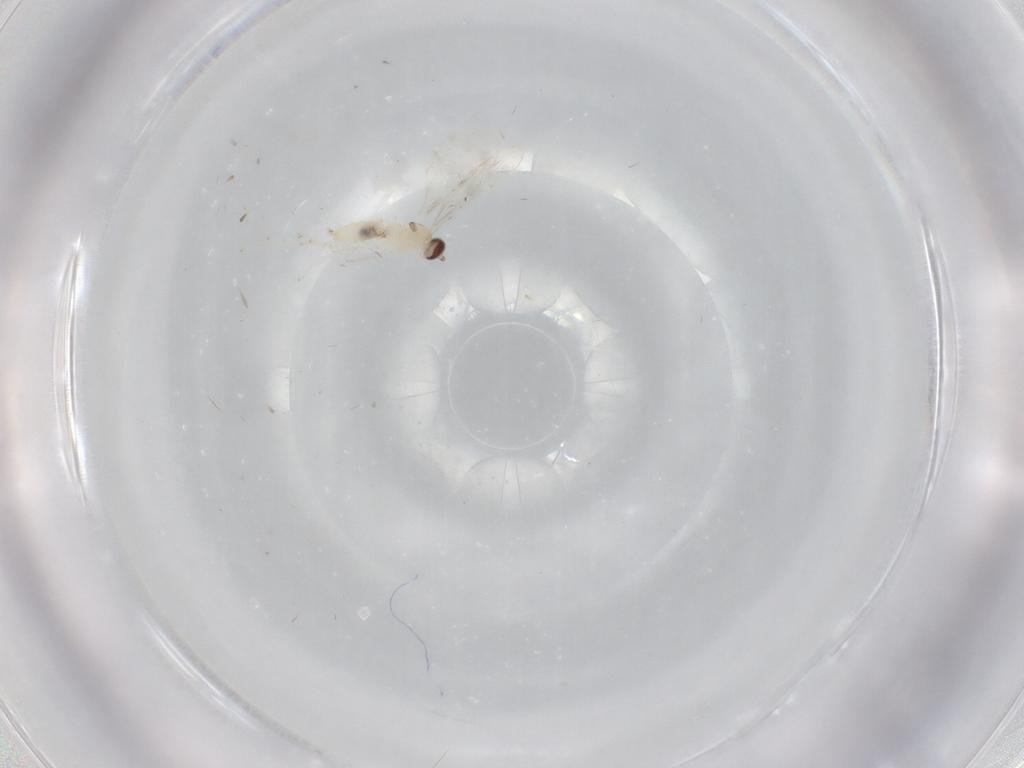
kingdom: Animalia
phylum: Arthropoda
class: Insecta
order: Diptera
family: Cecidomyiidae
